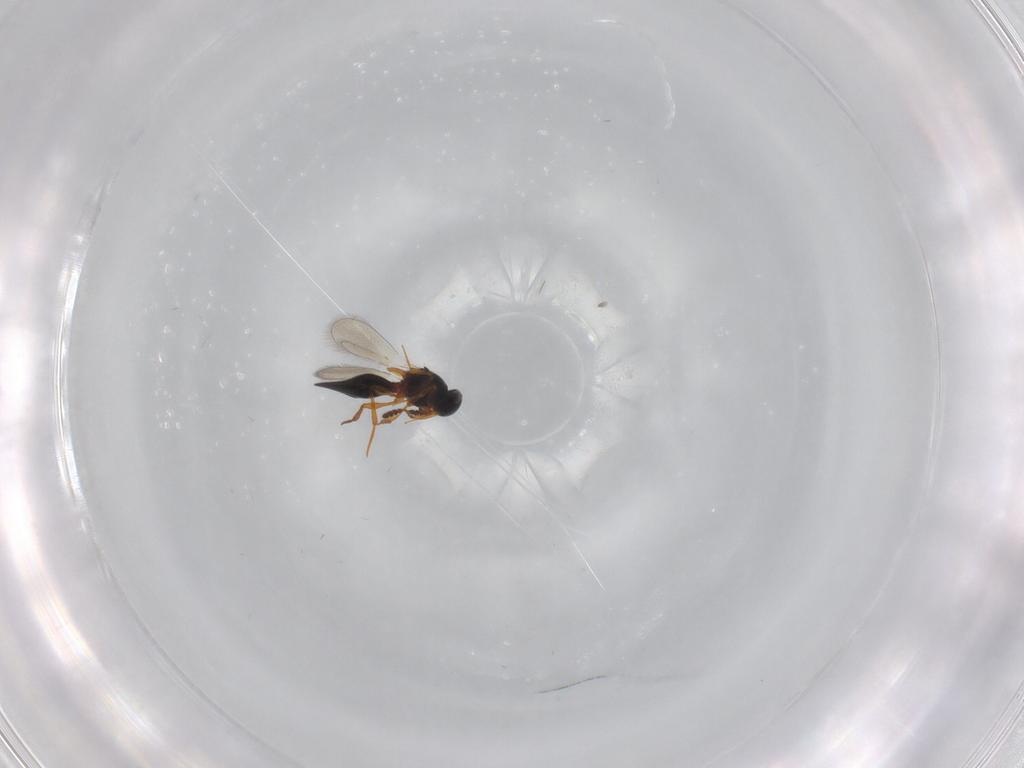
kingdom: Animalia
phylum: Arthropoda
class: Insecta
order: Hymenoptera
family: Platygastridae
